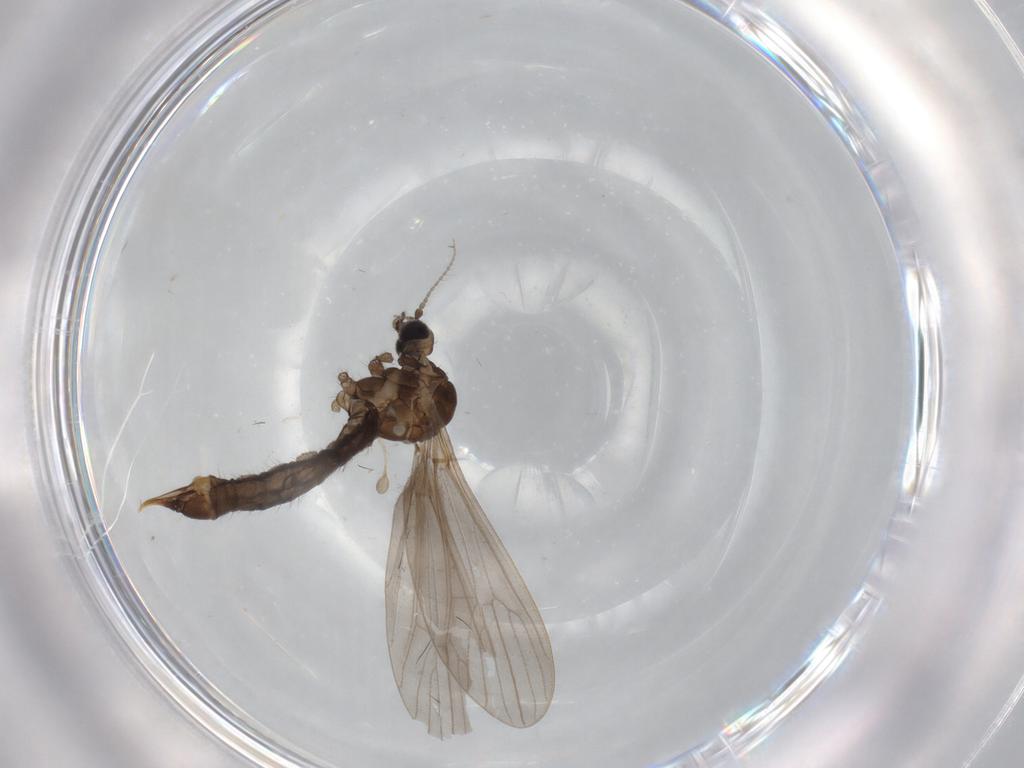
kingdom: Animalia
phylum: Arthropoda
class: Insecta
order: Diptera
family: Limoniidae
